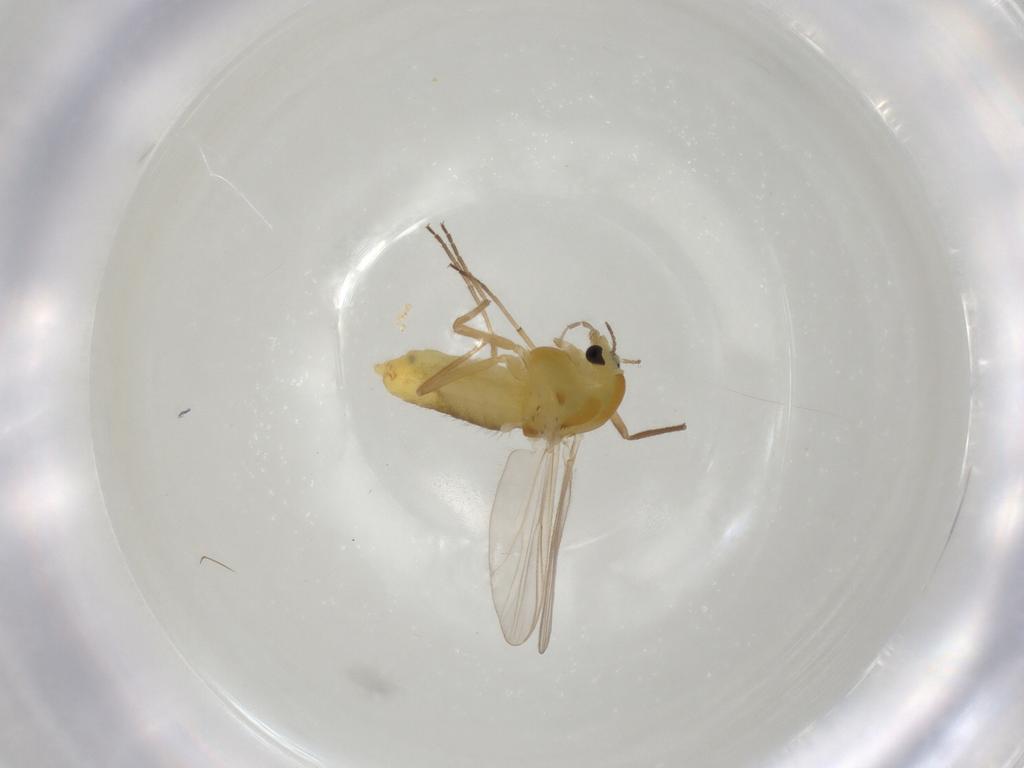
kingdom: Animalia
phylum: Arthropoda
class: Insecta
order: Diptera
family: Chironomidae
